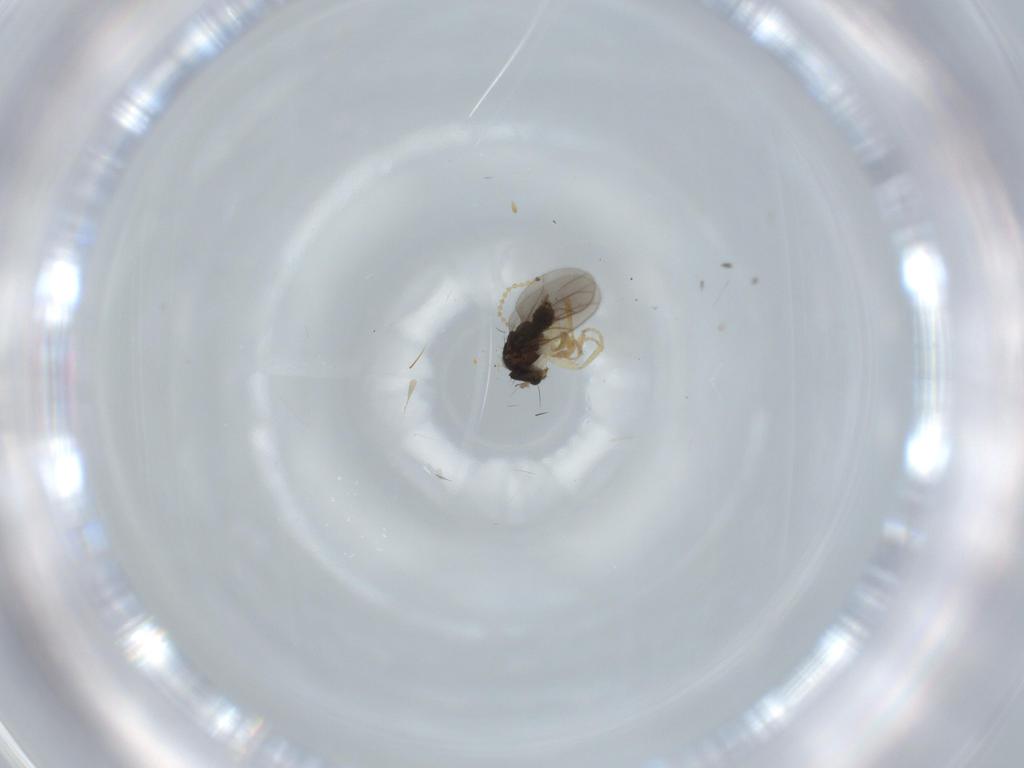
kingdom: Animalia
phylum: Arthropoda
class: Insecta
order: Diptera
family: Hybotidae
